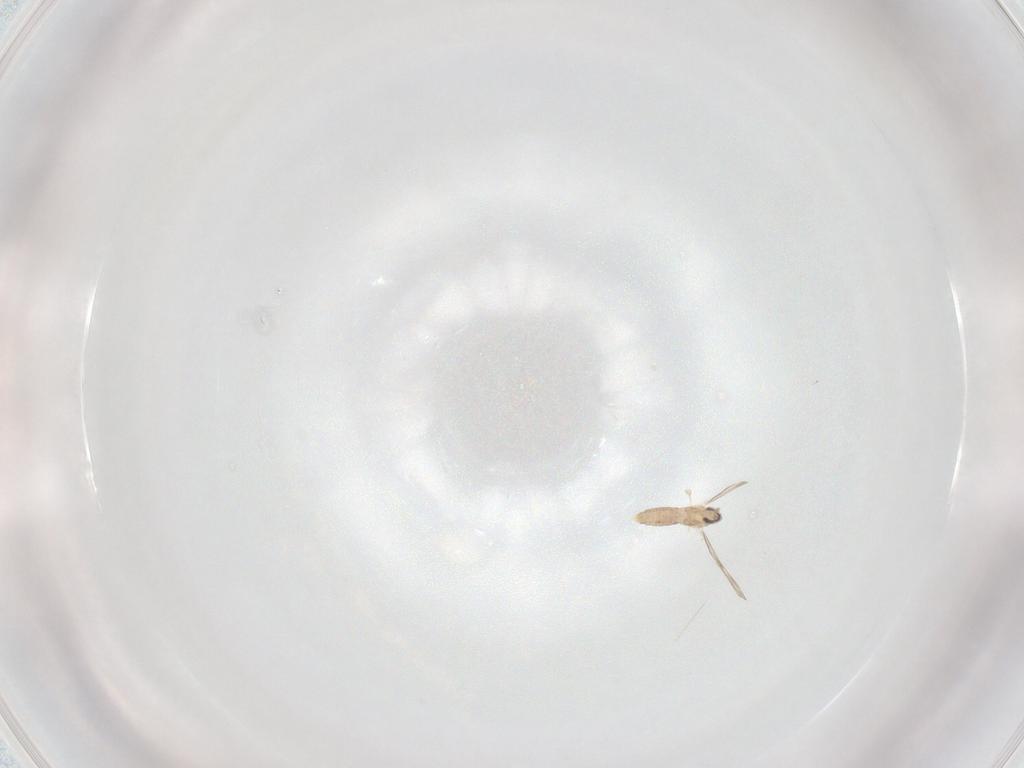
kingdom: Animalia
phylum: Arthropoda
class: Insecta
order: Diptera
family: Cecidomyiidae
